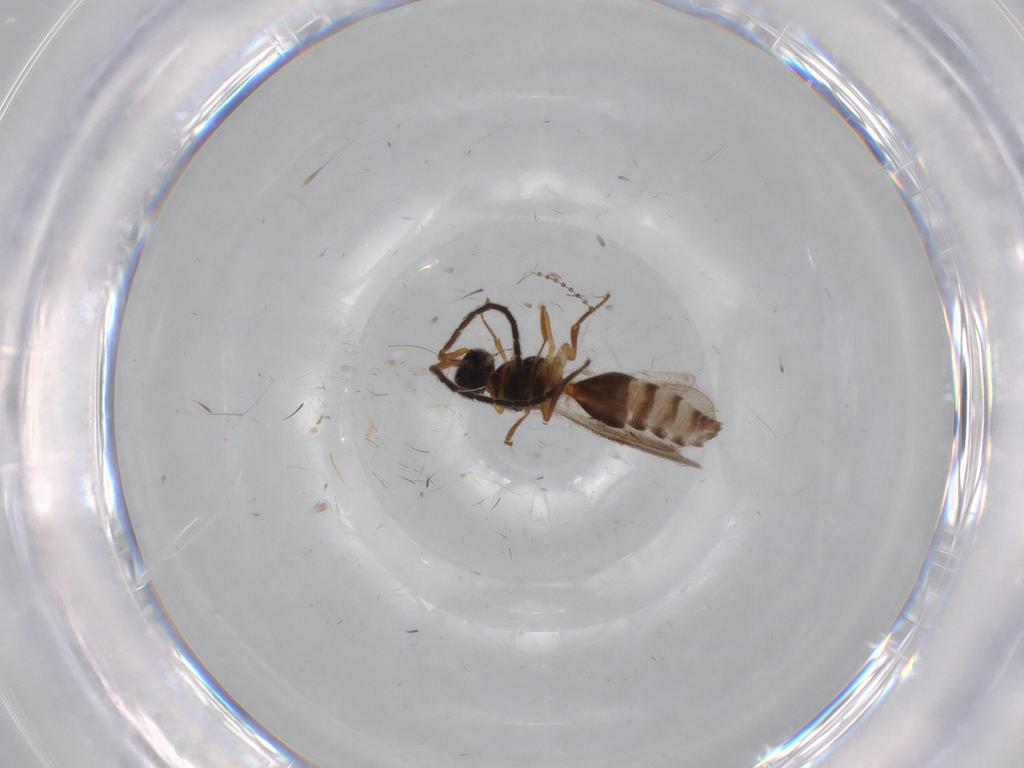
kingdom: Animalia
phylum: Arthropoda
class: Insecta
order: Hymenoptera
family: Megaspilidae
